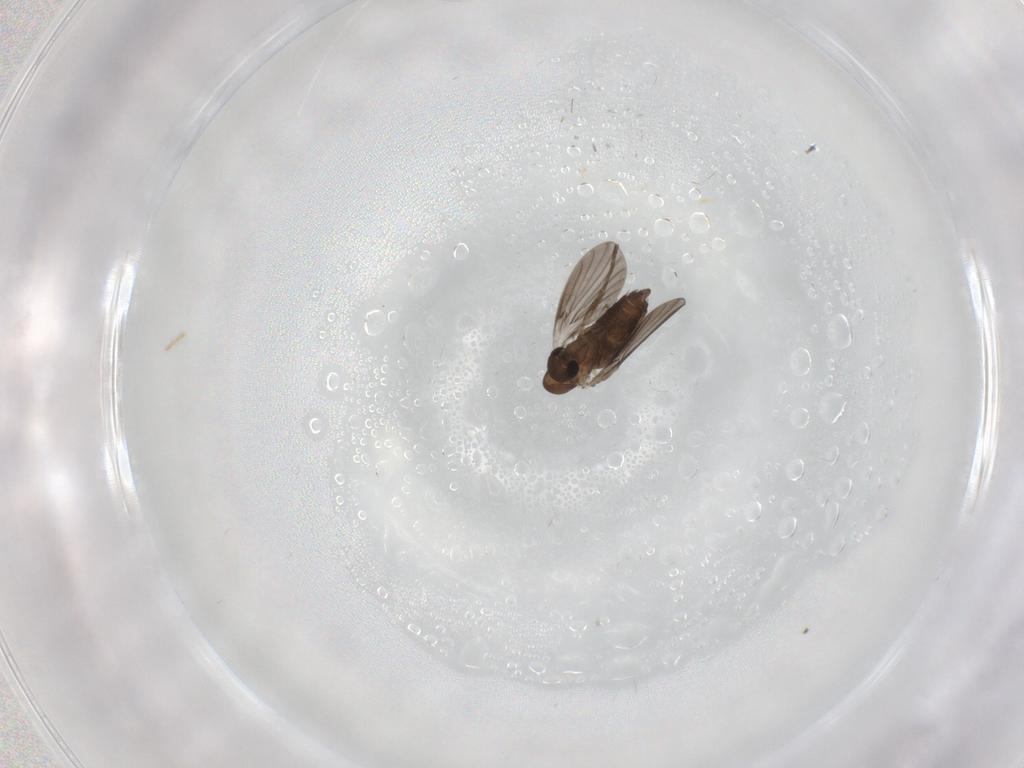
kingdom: Animalia
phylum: Arthropoda
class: Insecta
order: Diptera
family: Psychodidae
